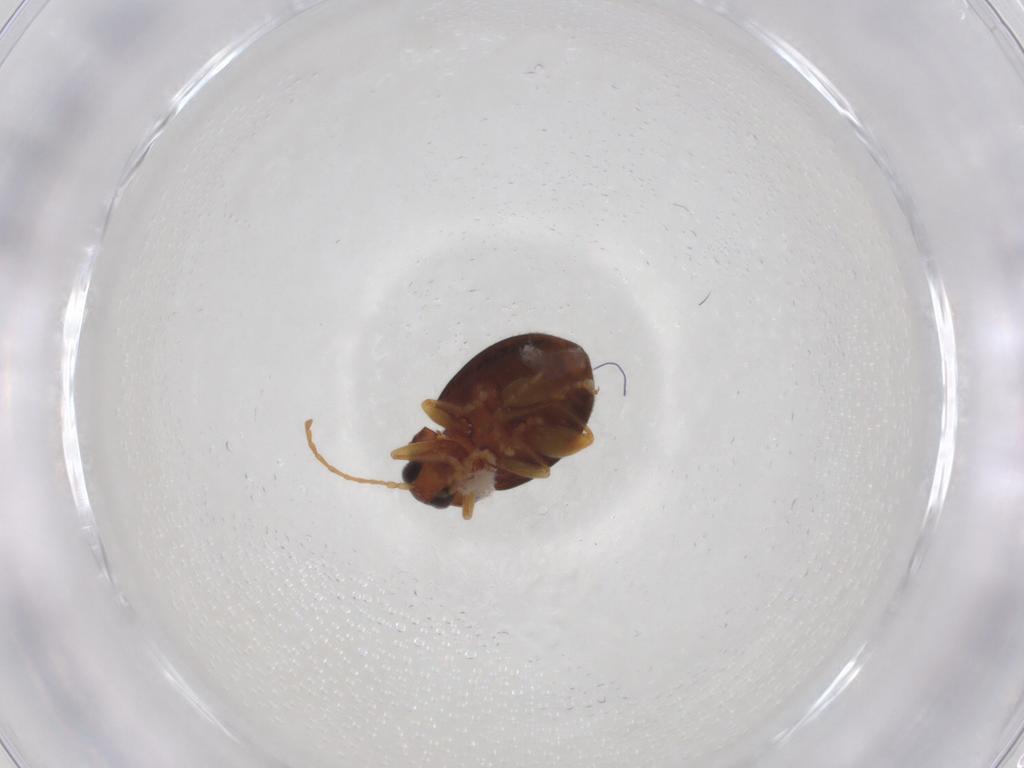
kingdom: Animalia
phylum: Arthropoda
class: Insecta
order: Coleoptera
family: Chrysomelidae
